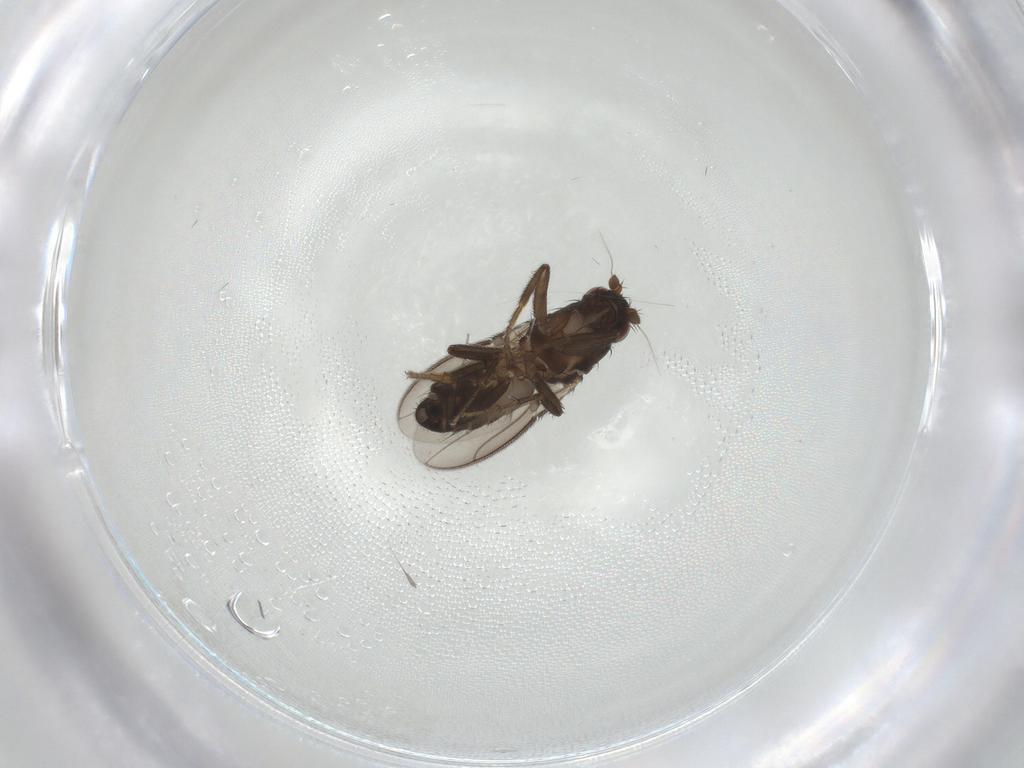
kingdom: Animalia
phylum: Arthropoda
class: Insecta
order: Diptera
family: Sphaeroceridae
